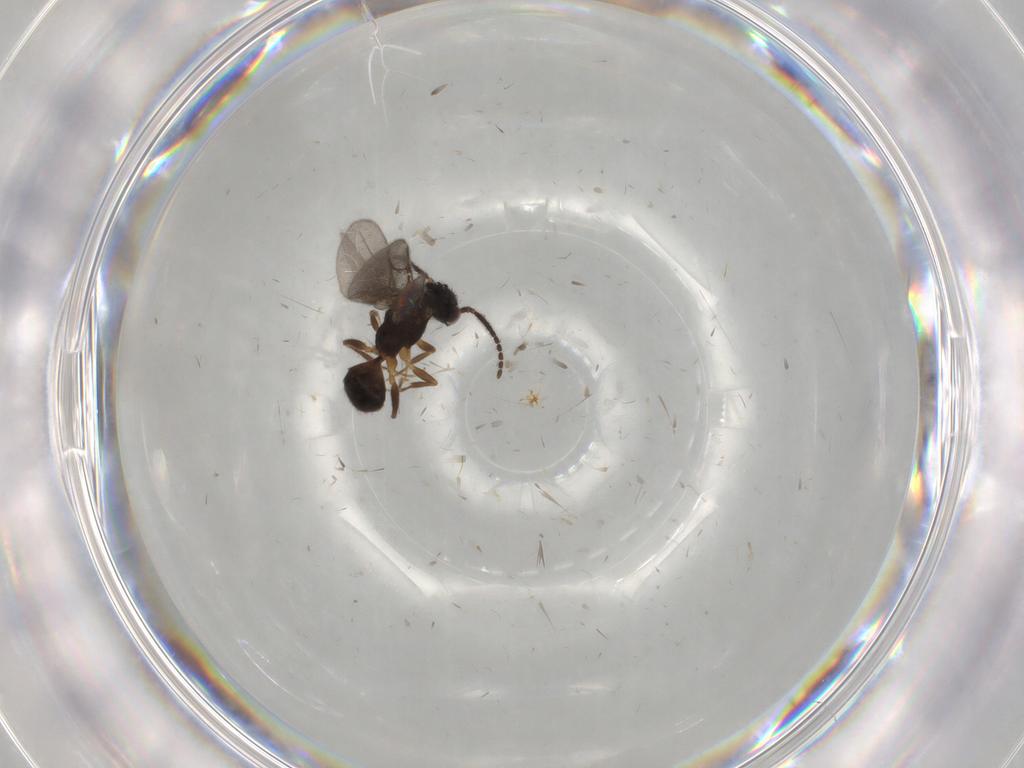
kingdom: Animalia
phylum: Arthropoda
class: Insecta
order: Hymenoptera
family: Bethylidae
